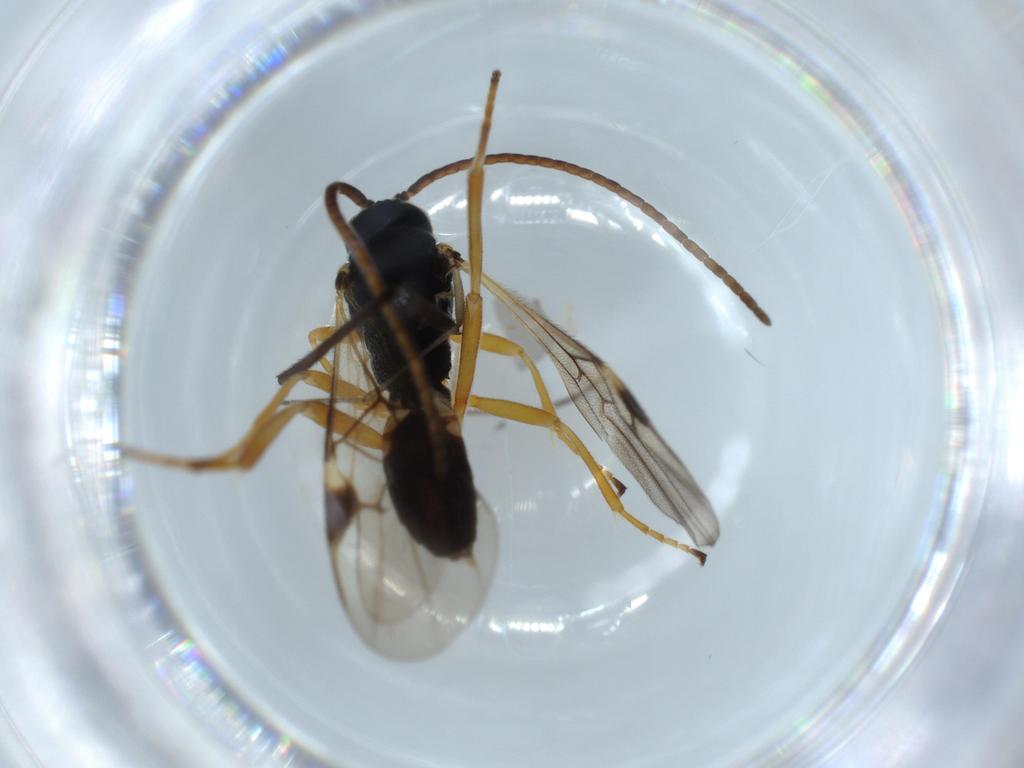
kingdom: Animalia
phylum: Arthropoda
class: Insecta
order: Hymenoptera
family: Braconidae
